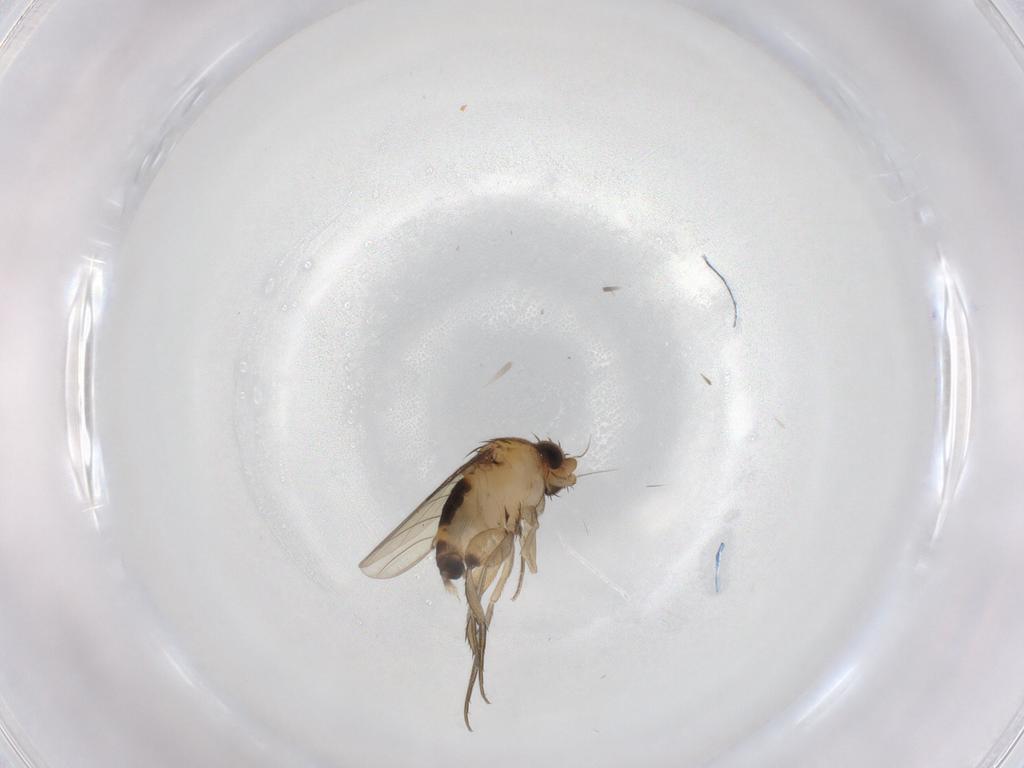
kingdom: Animalia
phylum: Arthropoda
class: Insecta
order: Diptera
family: Phoridae
